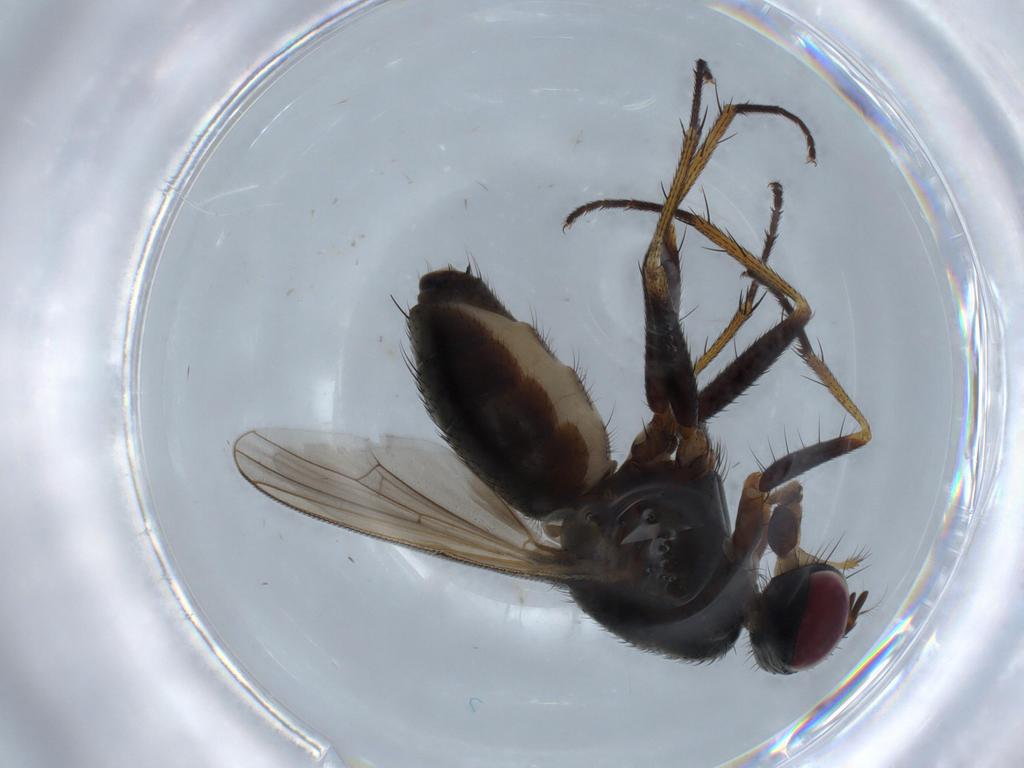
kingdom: Animalia
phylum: Arthropoda
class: Insecta
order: Diptera
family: Muscidae
